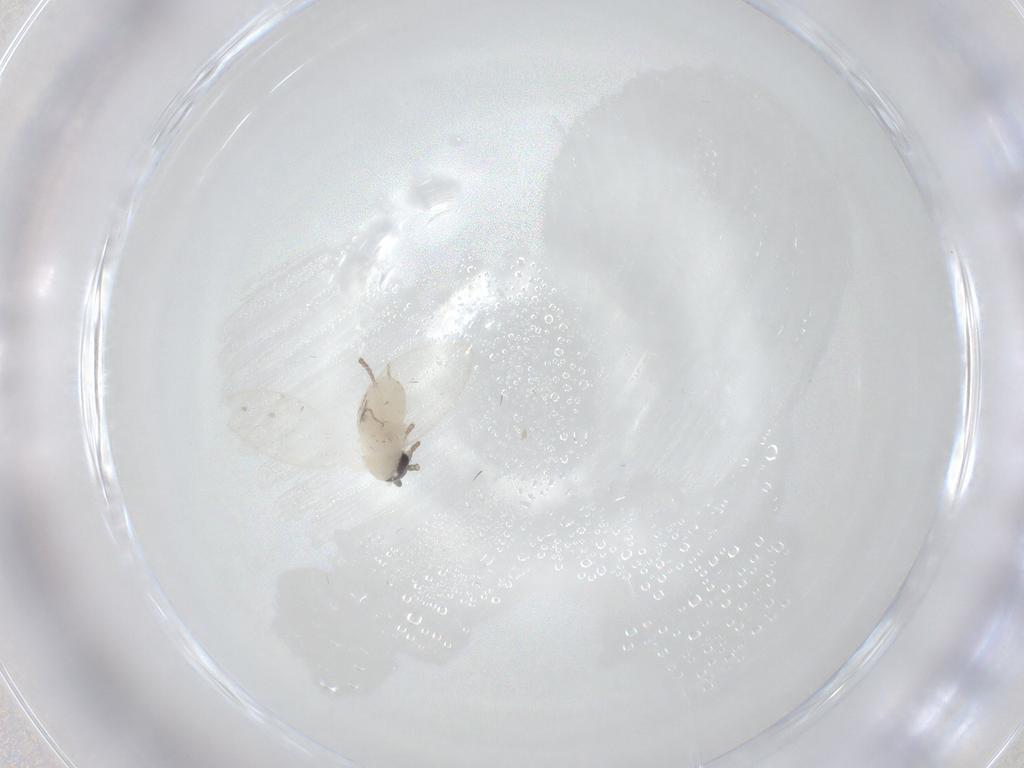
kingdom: Animalia
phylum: Arthropoda
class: Insecta
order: Diptera
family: Psychodidae
